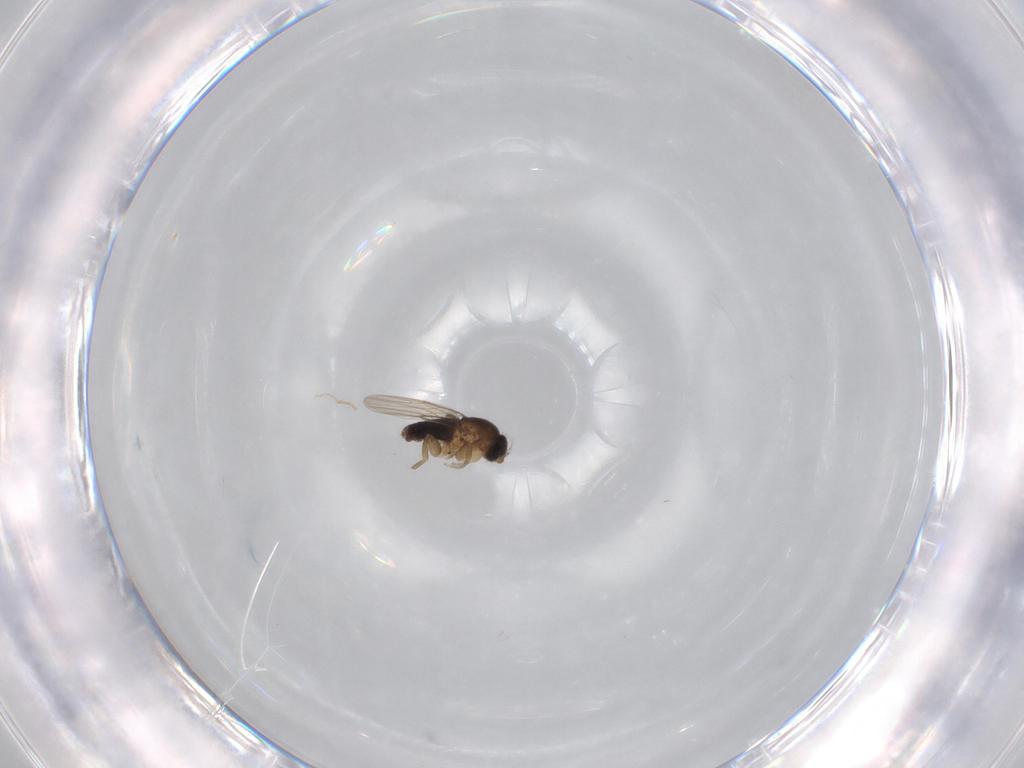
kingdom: Animalia
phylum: Arthropoda
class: Insecta
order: Diptera
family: Phoridae
